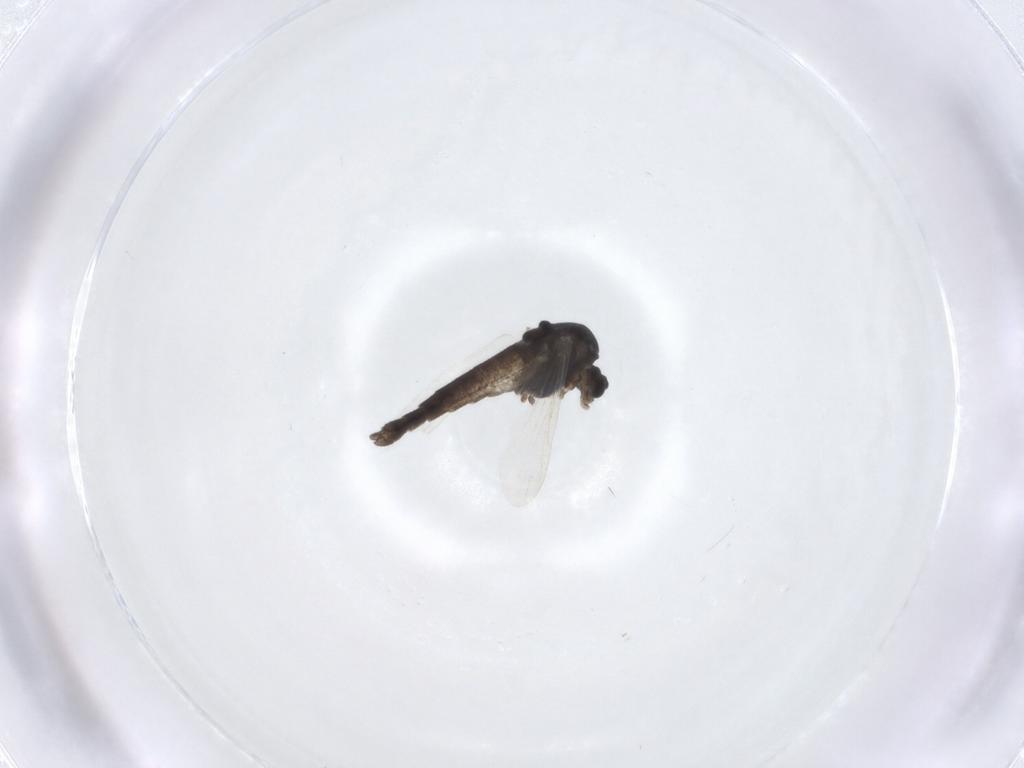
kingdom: Animalia
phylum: Arthropoda
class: Insecta
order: Diptera
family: Chironomidae
